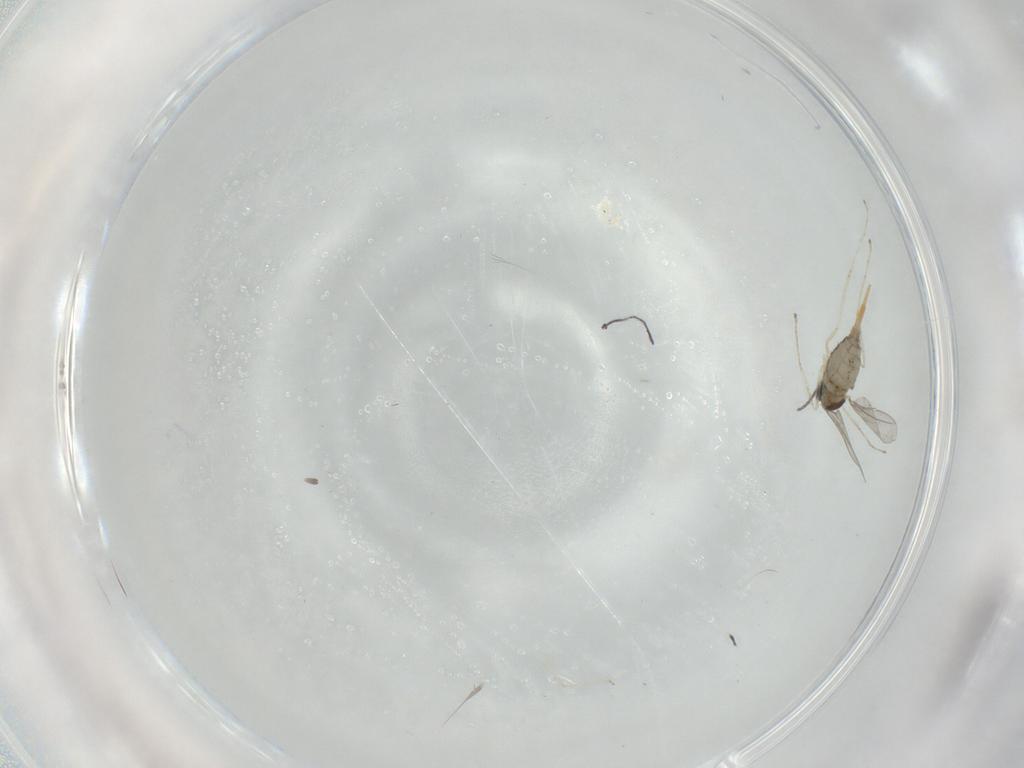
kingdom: Animalia
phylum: Arthropoda
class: Insecta
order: Diptera
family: Cecidomyiidae
